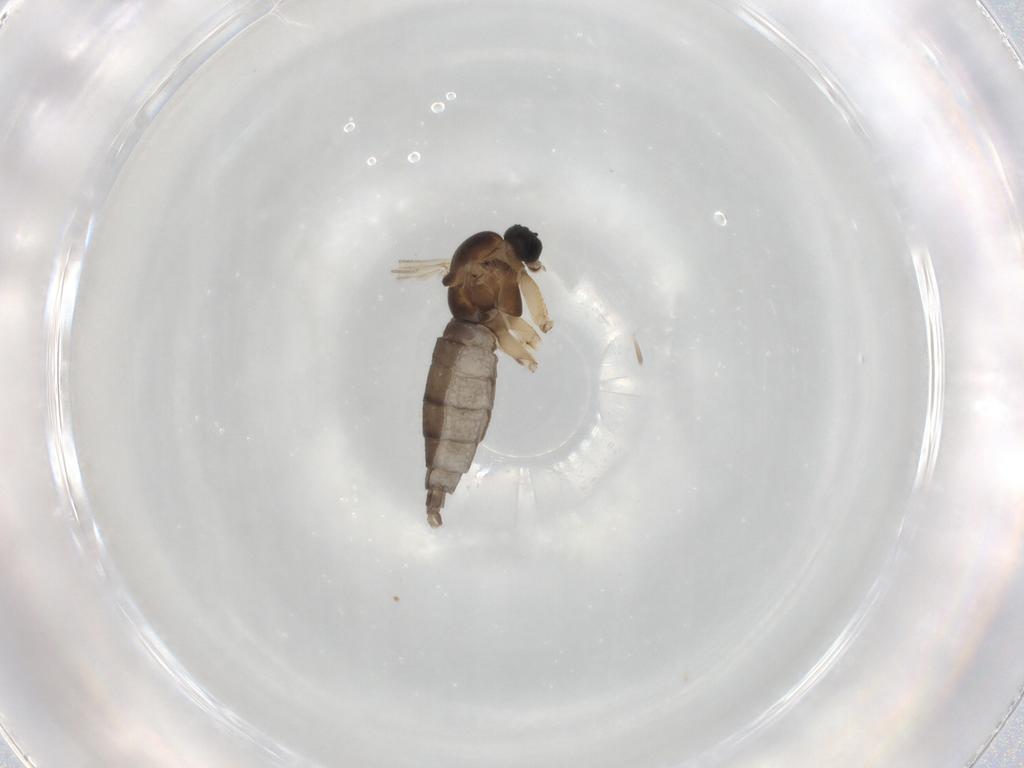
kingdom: Animalia
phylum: Arthropoda
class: Insecta
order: Diptera
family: Sciaridae
